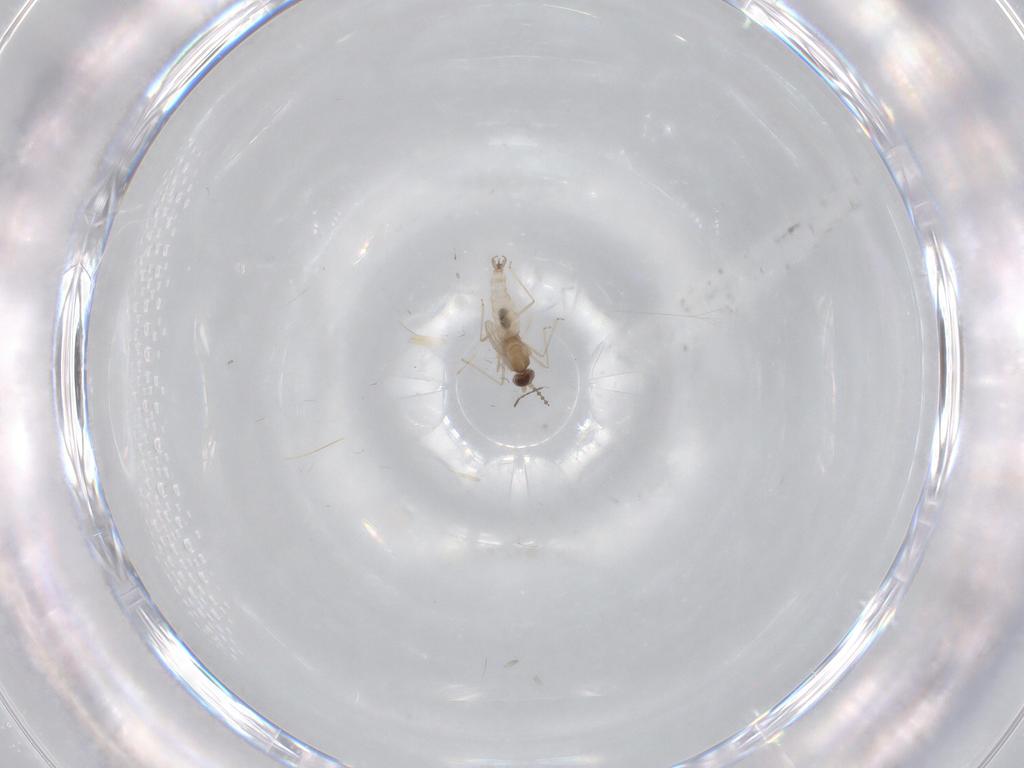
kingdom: Animalia
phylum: Arthropoda
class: Insecta
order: Diptera
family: Cecidomyiidae
